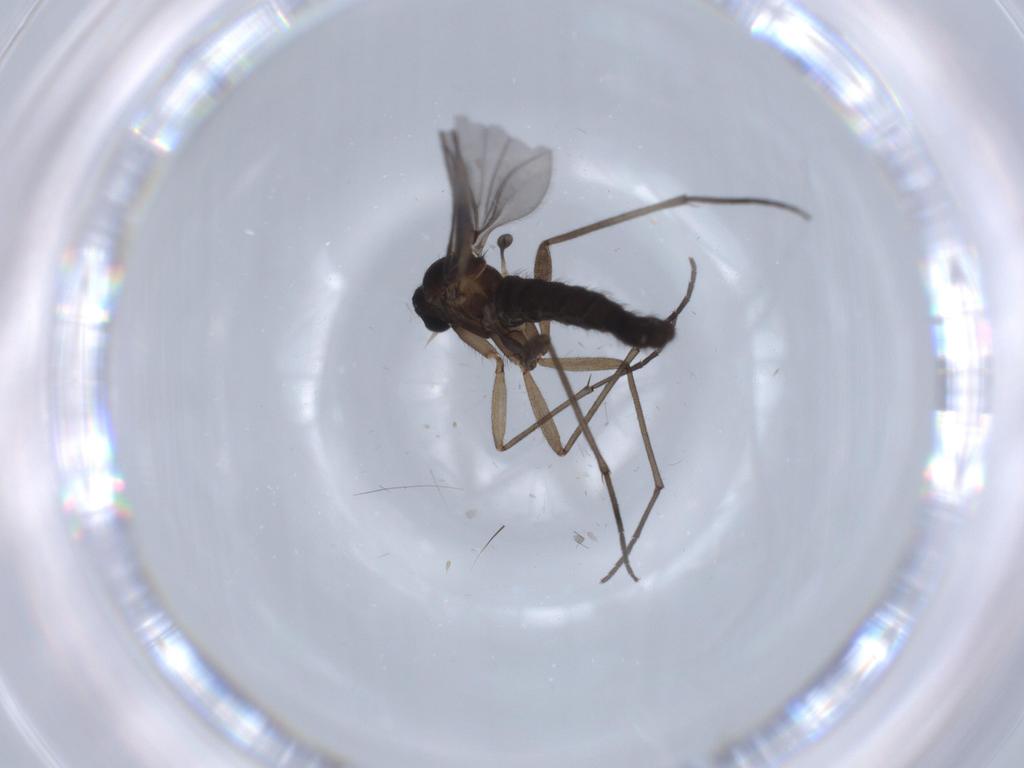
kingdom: Animalia
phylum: Arthropoda
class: Insecta
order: Diptera
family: Sciaridae
